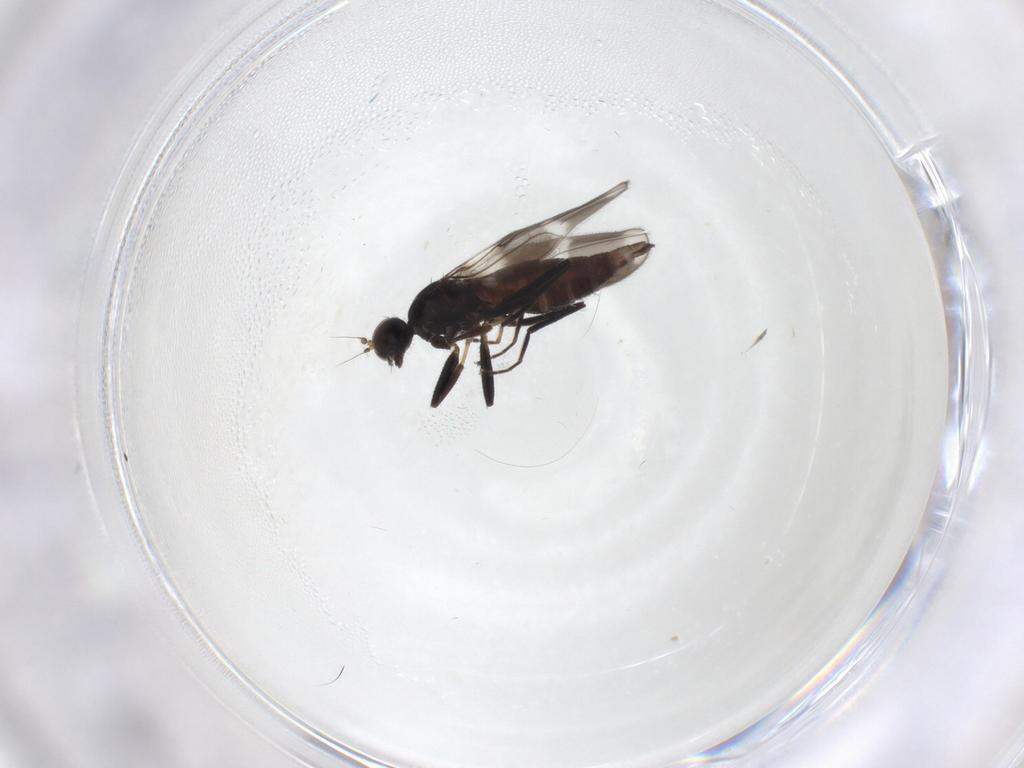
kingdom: Animalia
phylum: Arthropoda
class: Insecta
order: Diptera
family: Hybotidae
